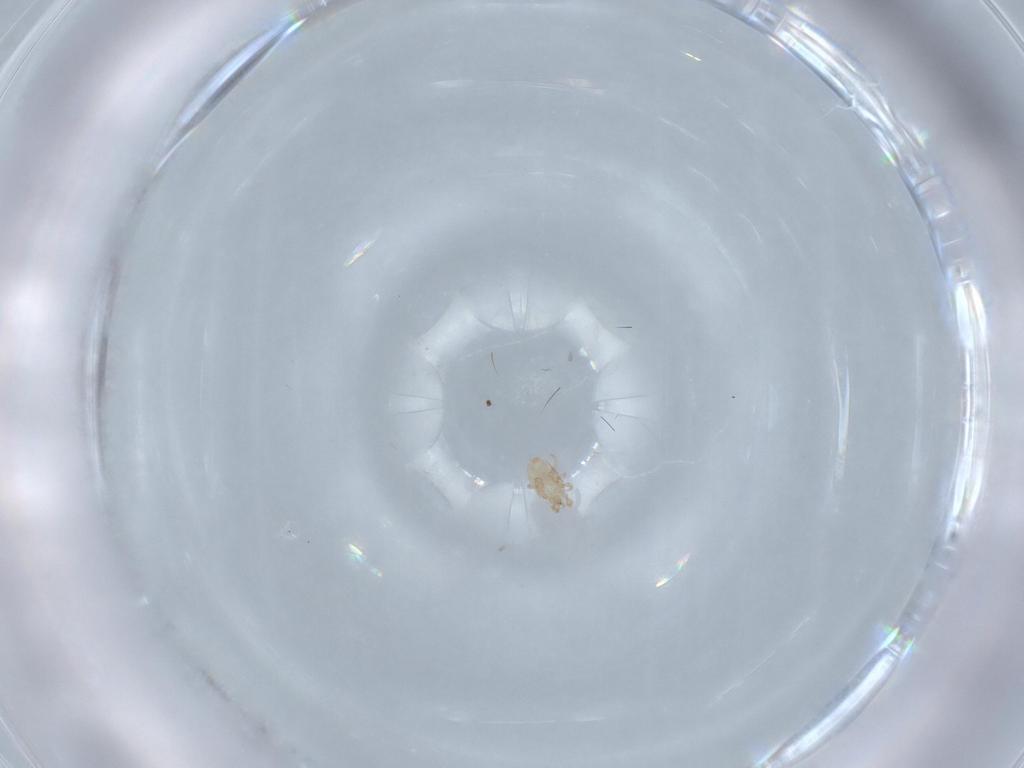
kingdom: Animalia
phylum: Arthropoda
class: Arachnida
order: Mesostigmata
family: Ascidae
